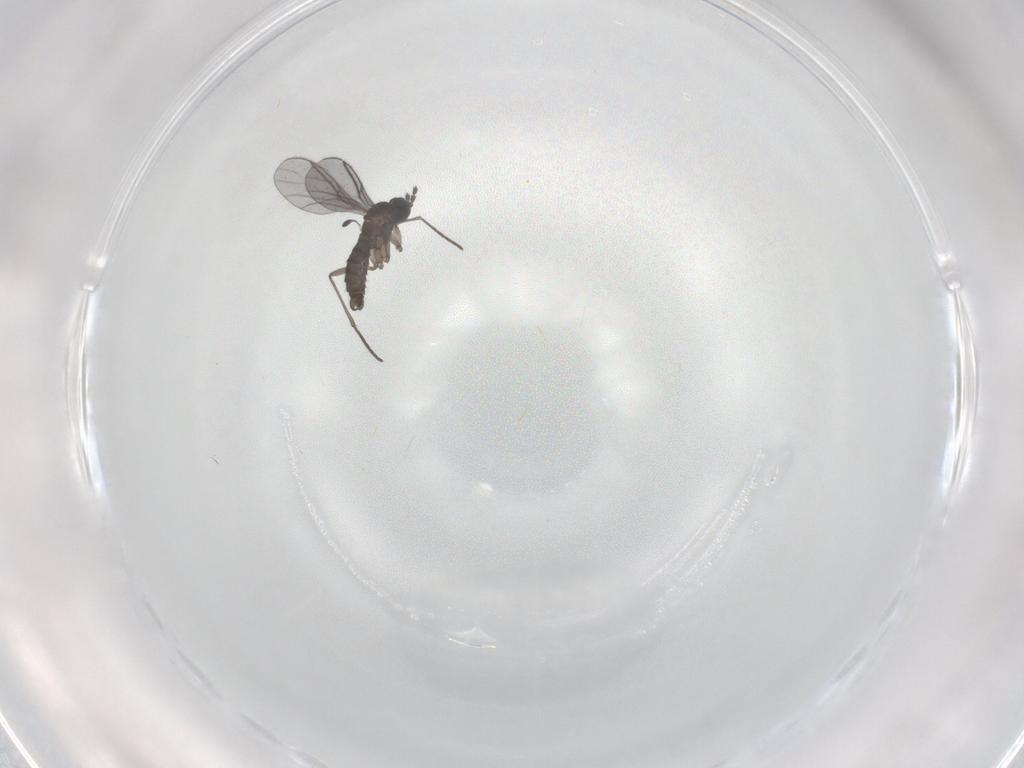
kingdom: Animalia
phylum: Arthropoda
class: Insecta
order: Diptera
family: Cecidomyiidae
